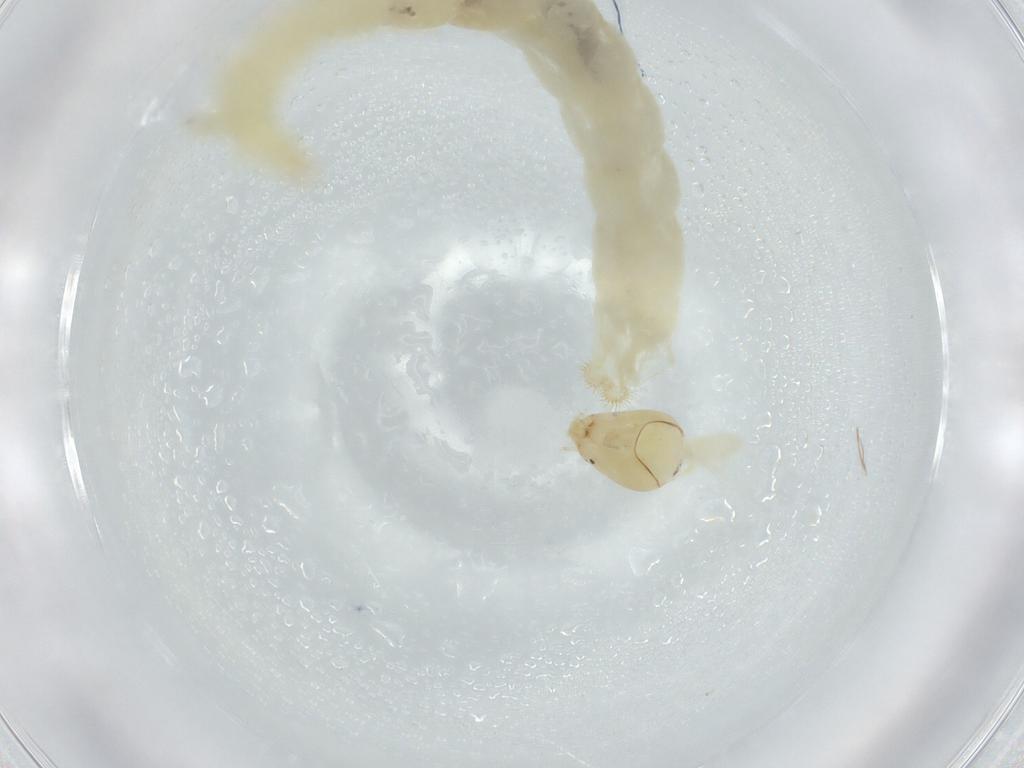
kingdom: Animalia
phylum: Arthropoda
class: Insecta
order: Diptera
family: Chironomidae
